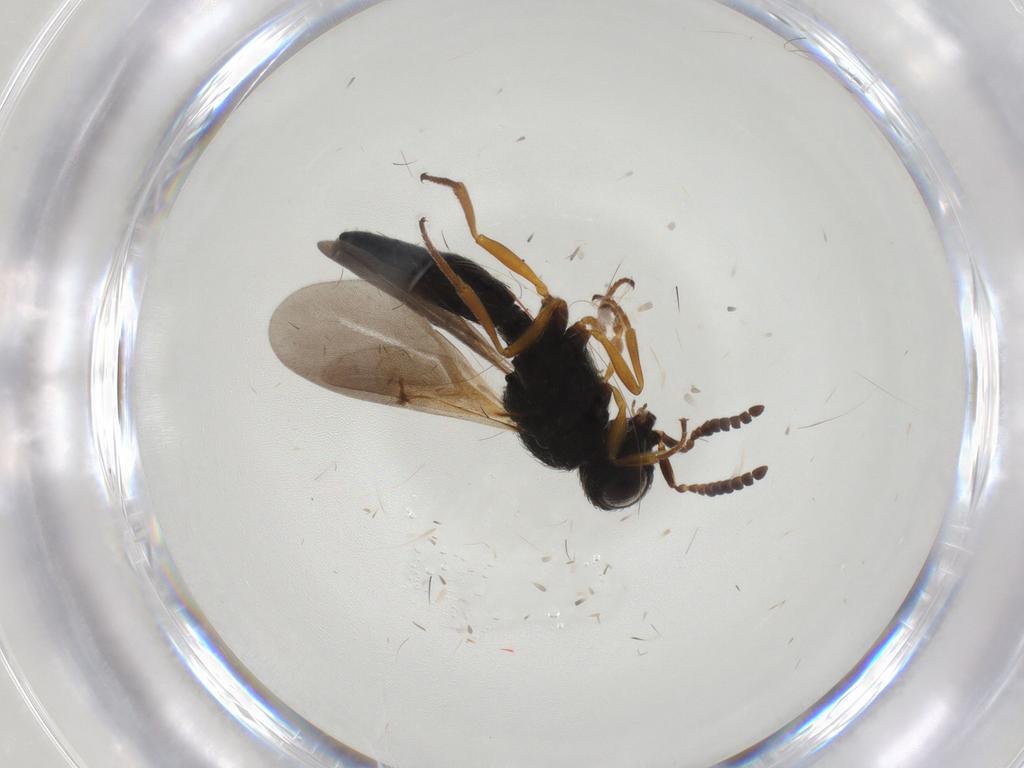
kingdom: Animalia
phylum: Arthropoda
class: Insecta
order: Hymenoptera
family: Scelionidae
